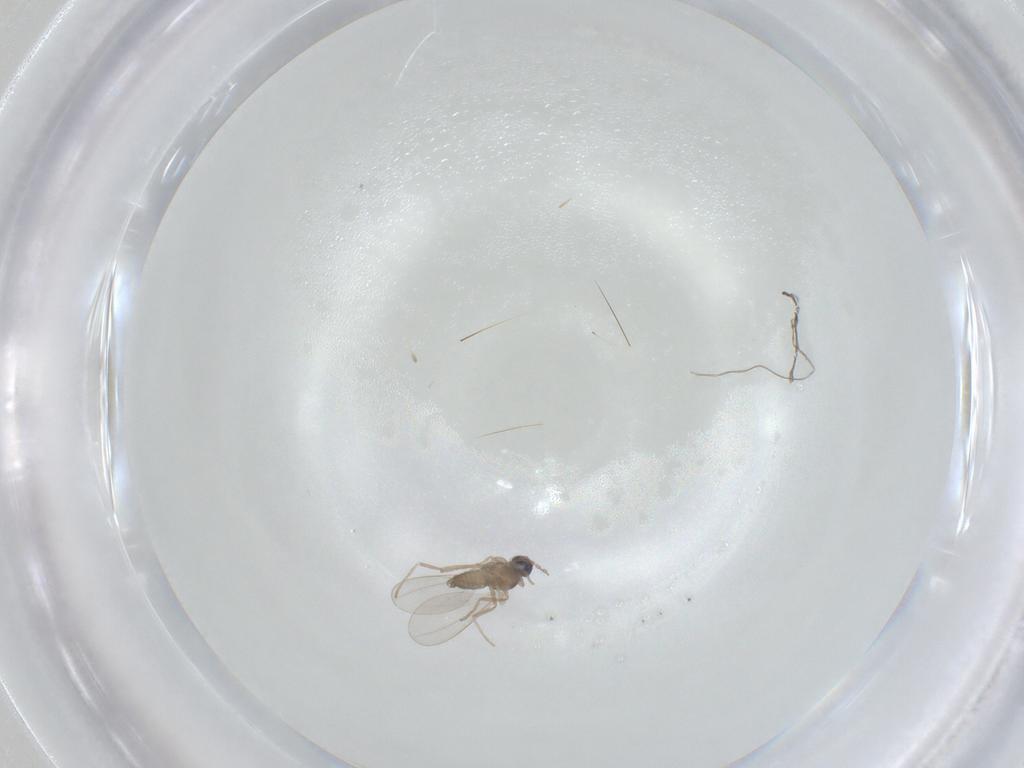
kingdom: Animalia
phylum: Arthropoda
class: Insecta
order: Diptera
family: Cecidomyiidae
